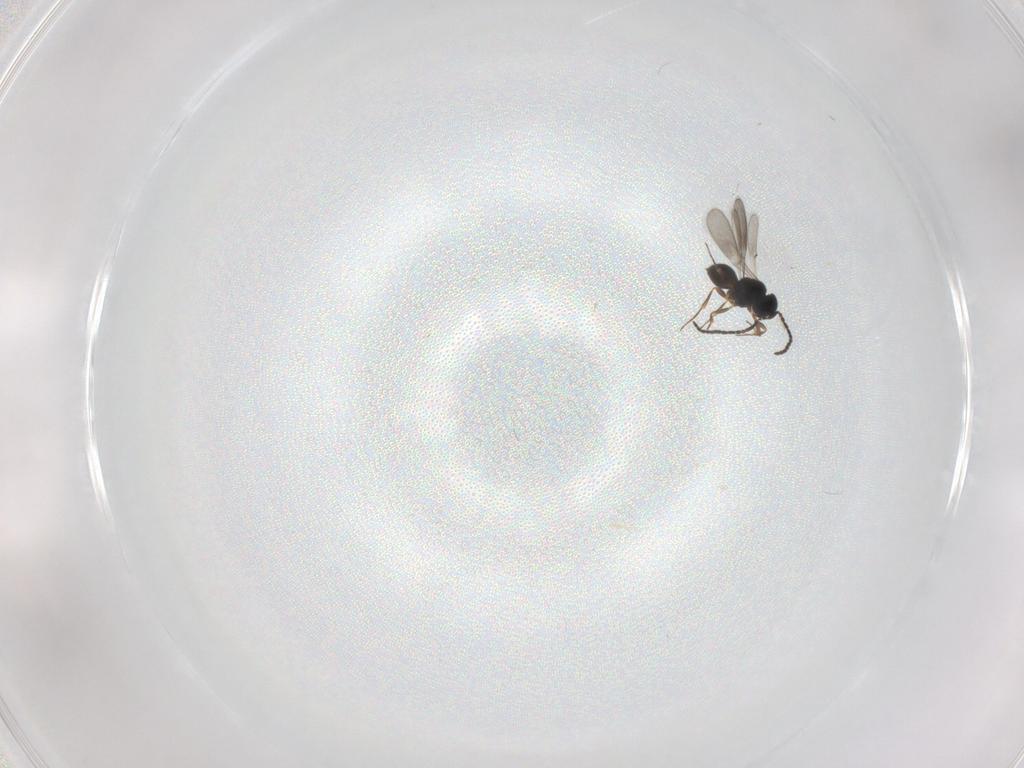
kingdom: Animalia
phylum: Arthropoda
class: Insecta
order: Hymenoptera
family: Scelionidae
